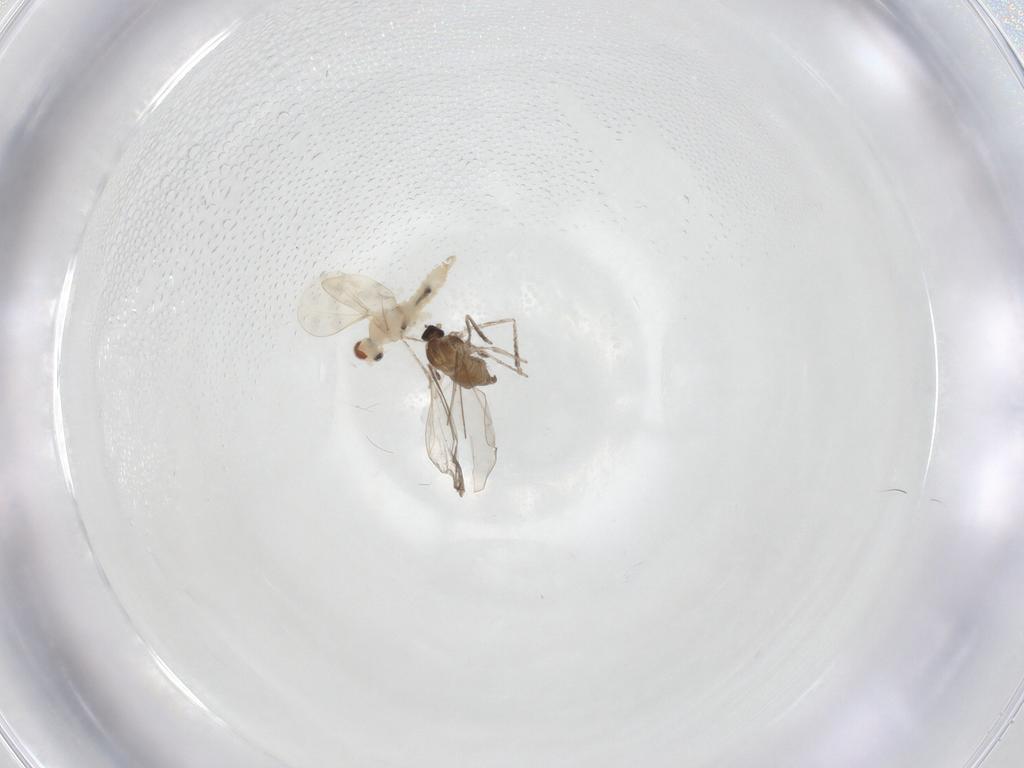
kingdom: Animalia
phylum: Arthropoda
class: Insecta
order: Diptera
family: Cecidomyiidae
